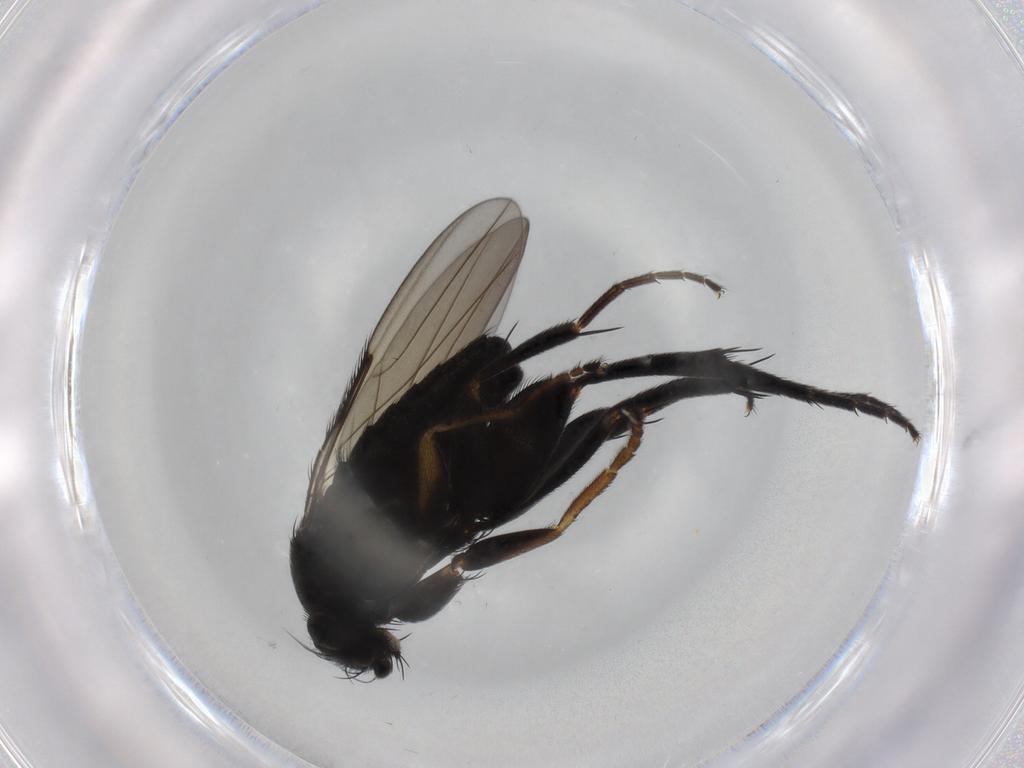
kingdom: Animalia
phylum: Arthropoda
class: Insecta
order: Diptera
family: Phoridae
